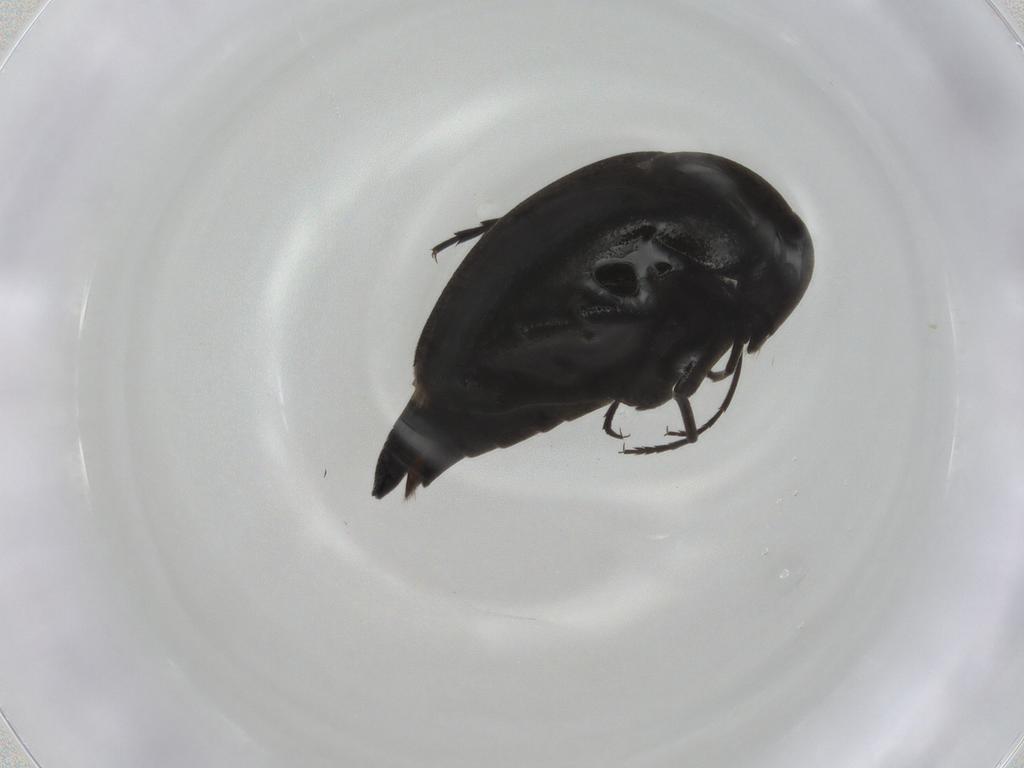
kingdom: Animalia
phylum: Arthropoda
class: Insecta
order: Coleoptera
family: Mordellidae
